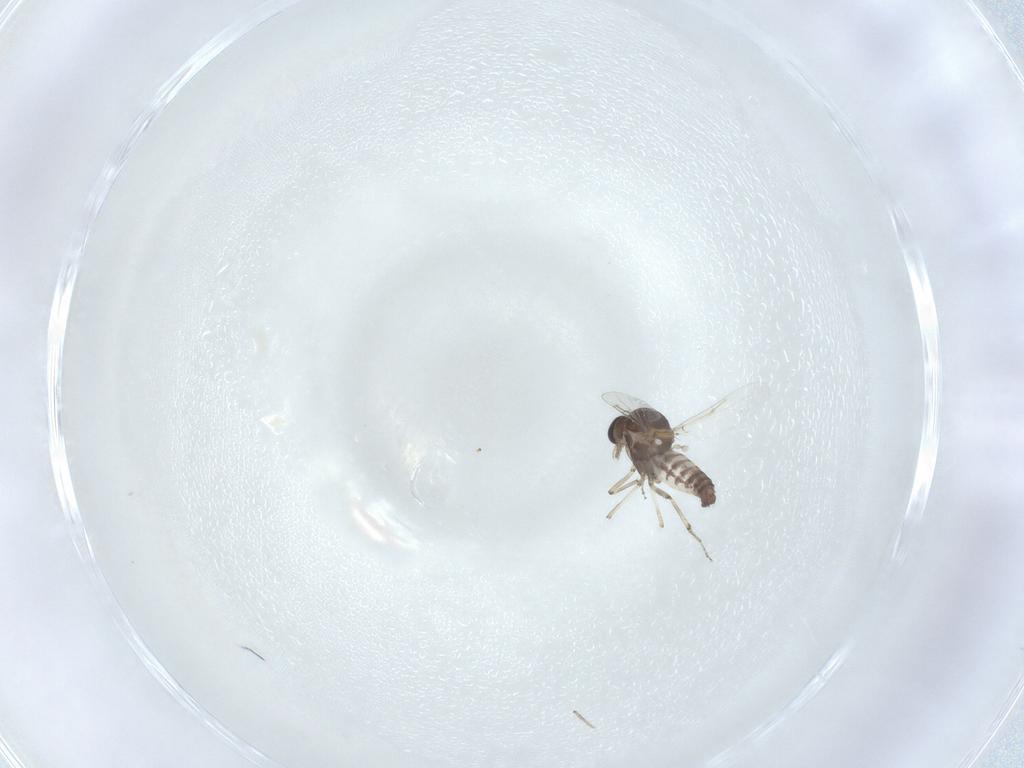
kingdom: Animalia
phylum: Arthropoda
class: Insecta
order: Diptera
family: Ceratopogonidae
